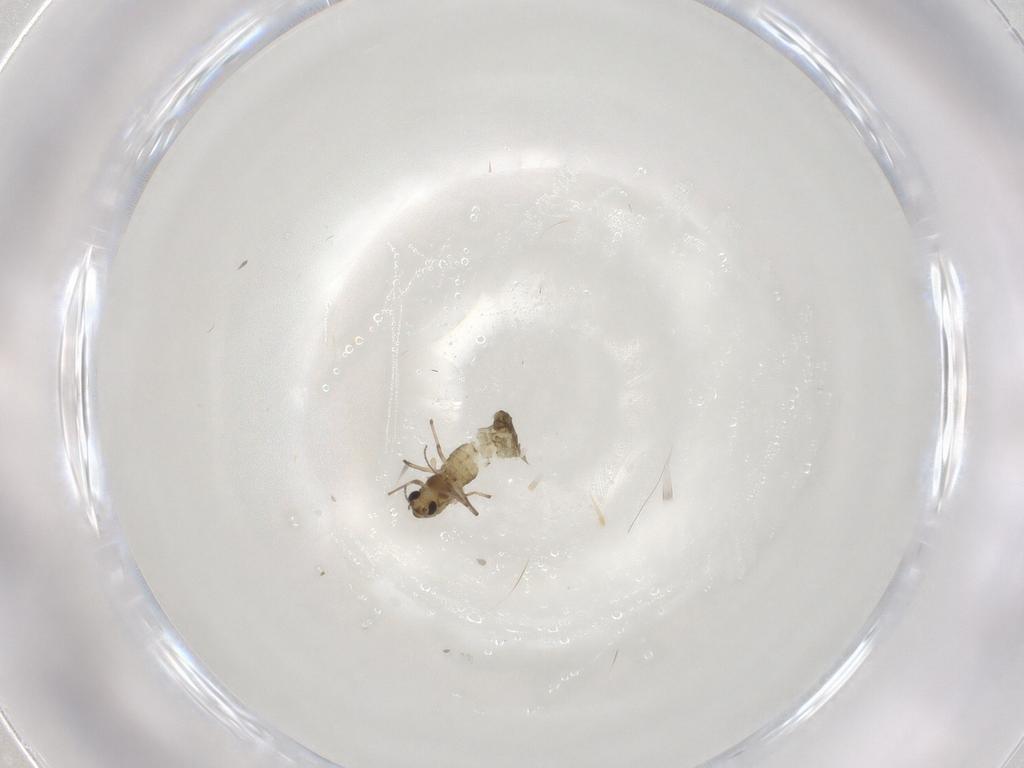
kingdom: Animalia
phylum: Arthropoda
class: Insecta
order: Diptera
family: Chironomidae
